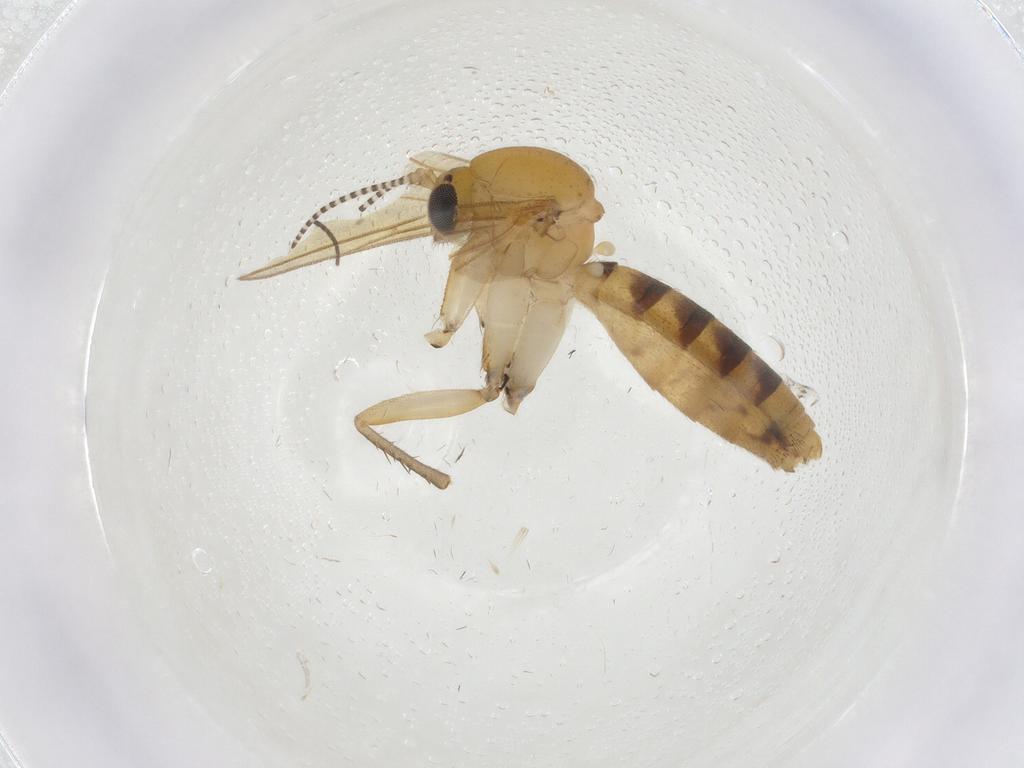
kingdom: Animalia
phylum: Arthropoda
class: Insecta
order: Diptera
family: Mycetophilidae
